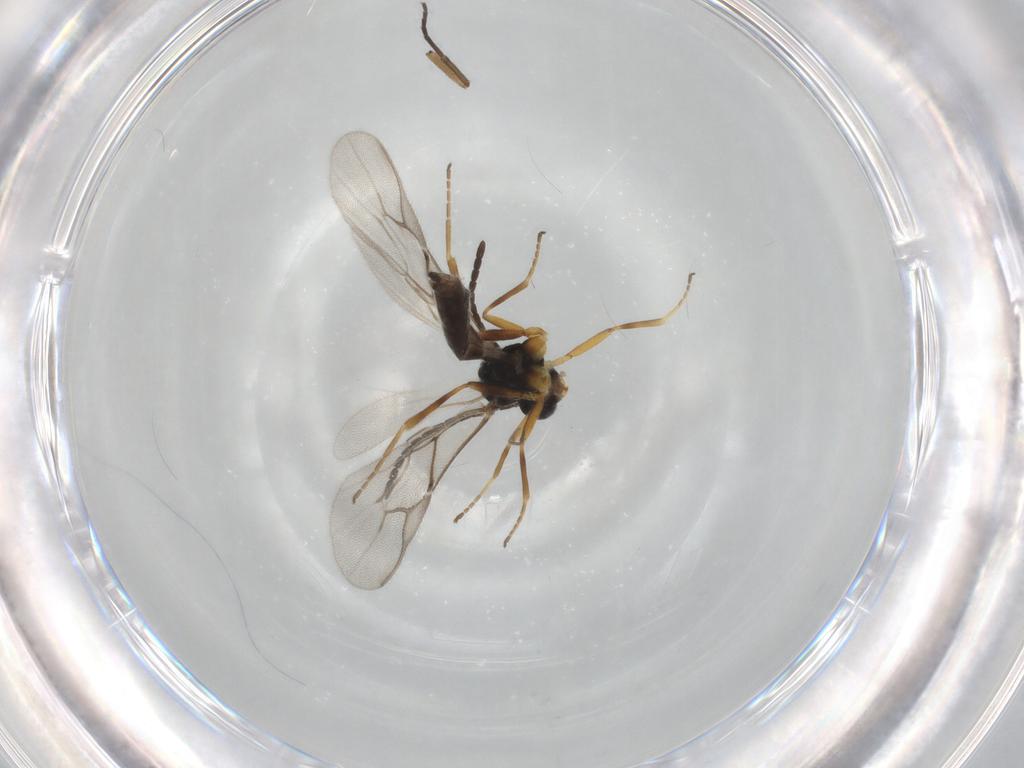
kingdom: Animalia
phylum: Arthropoda
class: Insecta
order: Hymenoptera
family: Braconidae
